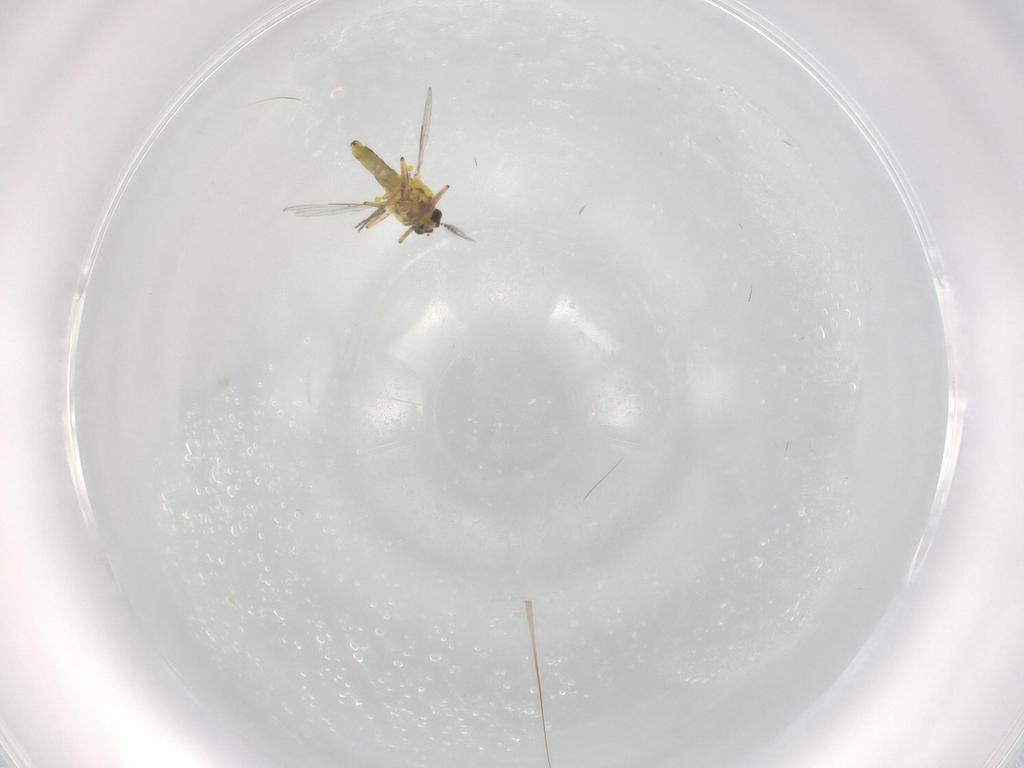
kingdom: Animalia
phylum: Arthropoda
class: Insecta
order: Diptera
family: Ceratopogonidae
